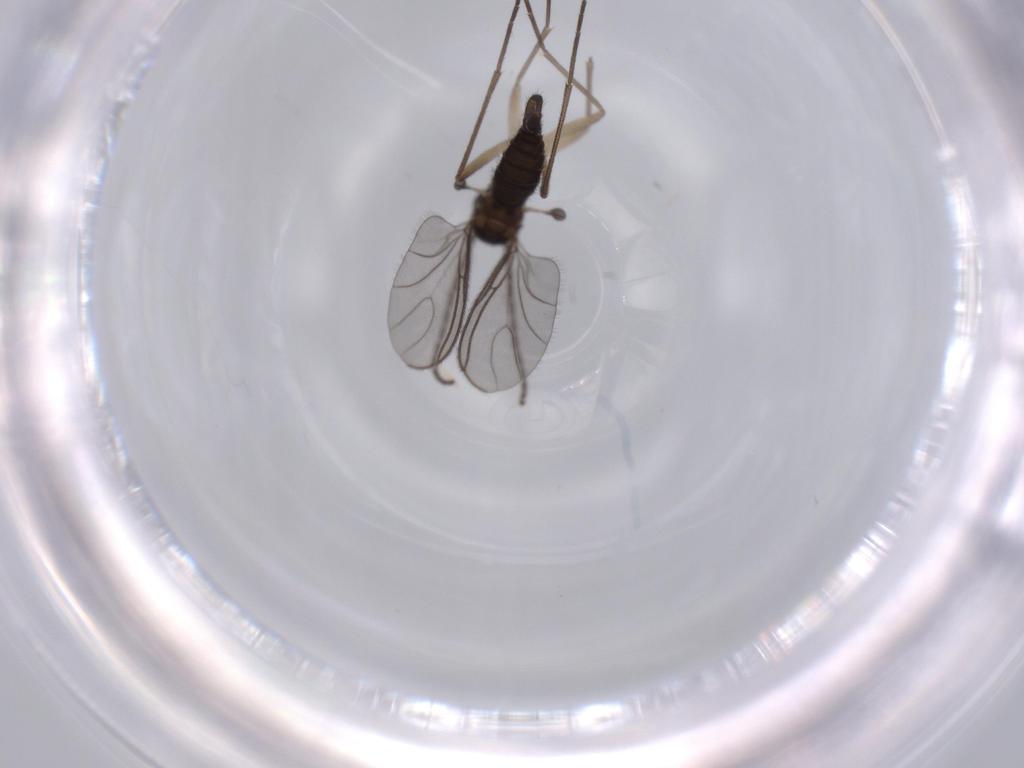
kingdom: Animalia
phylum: Arthropoda
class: Insecta
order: Diptera
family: Sciaridae
